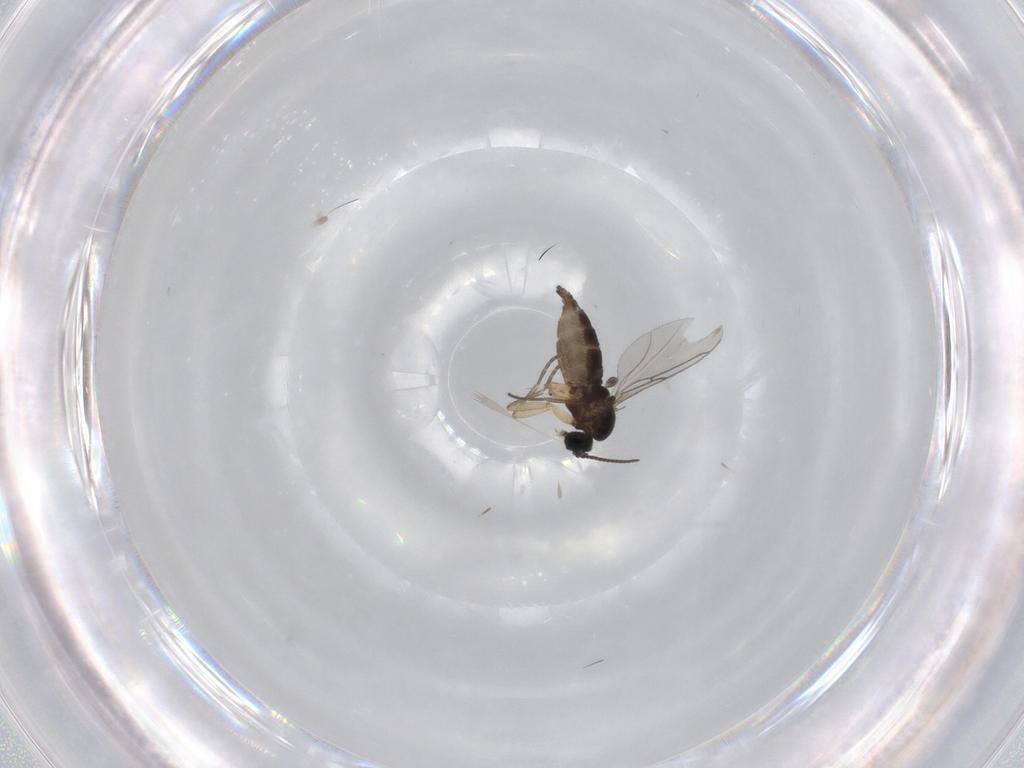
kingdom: Animalia
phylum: Arthropoda
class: Insecta
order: Diptera
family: Sciaridae
